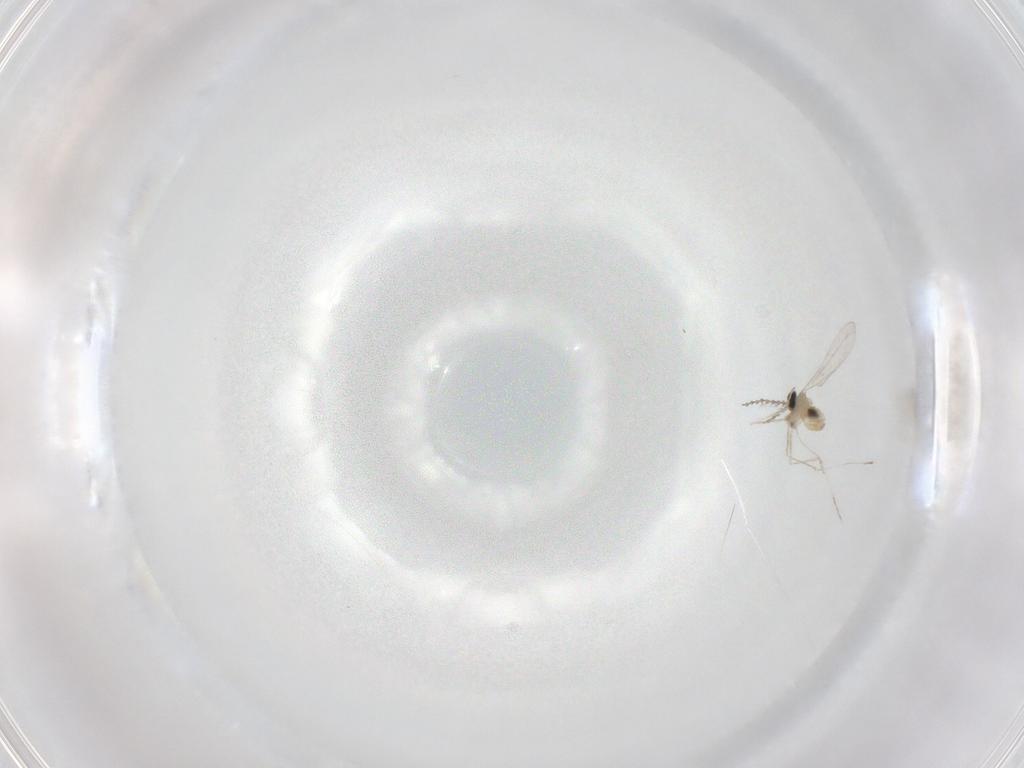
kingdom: Animalia
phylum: Arthropoda
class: Insecta
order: Diptera
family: Cecidomyiidae
